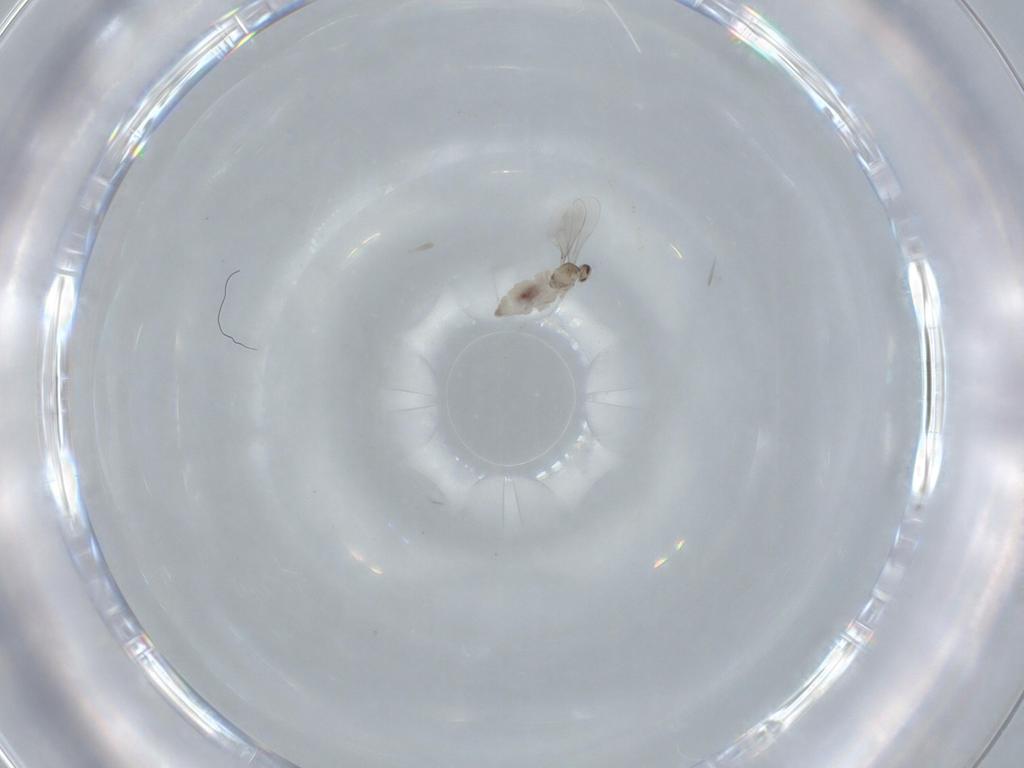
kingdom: Animalia
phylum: Arthropoda
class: Insecta
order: Diptera
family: Cecidomyiidae
